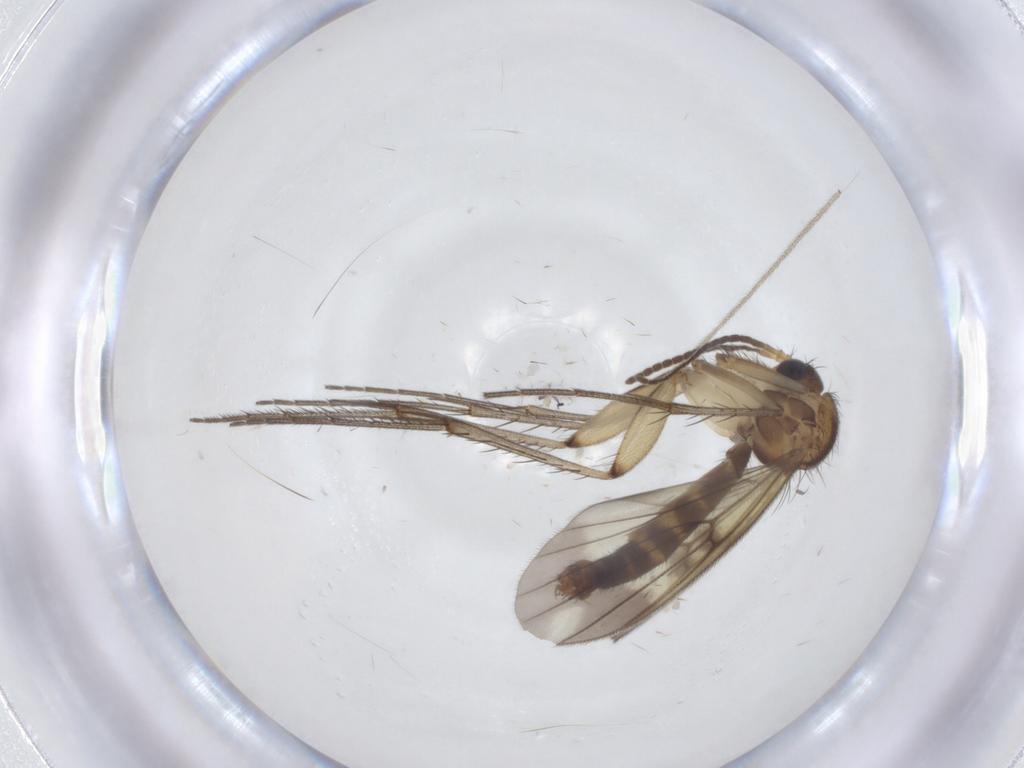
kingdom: Animalia
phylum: Arthropoda
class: Insecta
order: Diptera
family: Limoniidae
